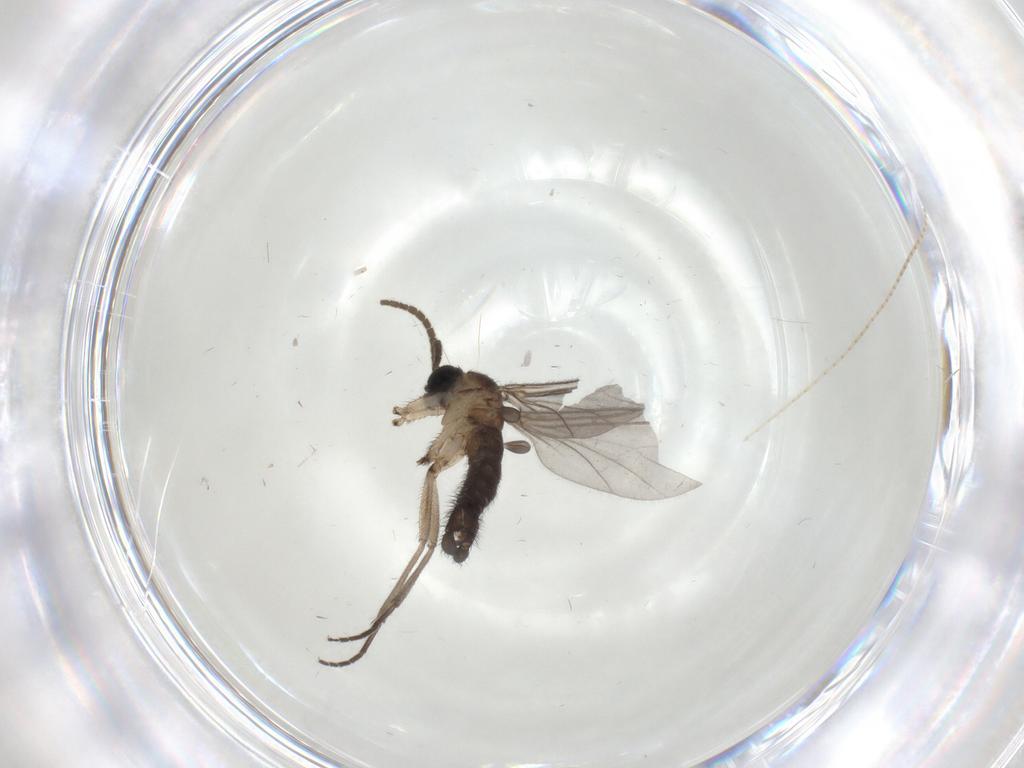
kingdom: Animalia
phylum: Arthropoda
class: Insecta
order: Diptera
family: Sciaridae
